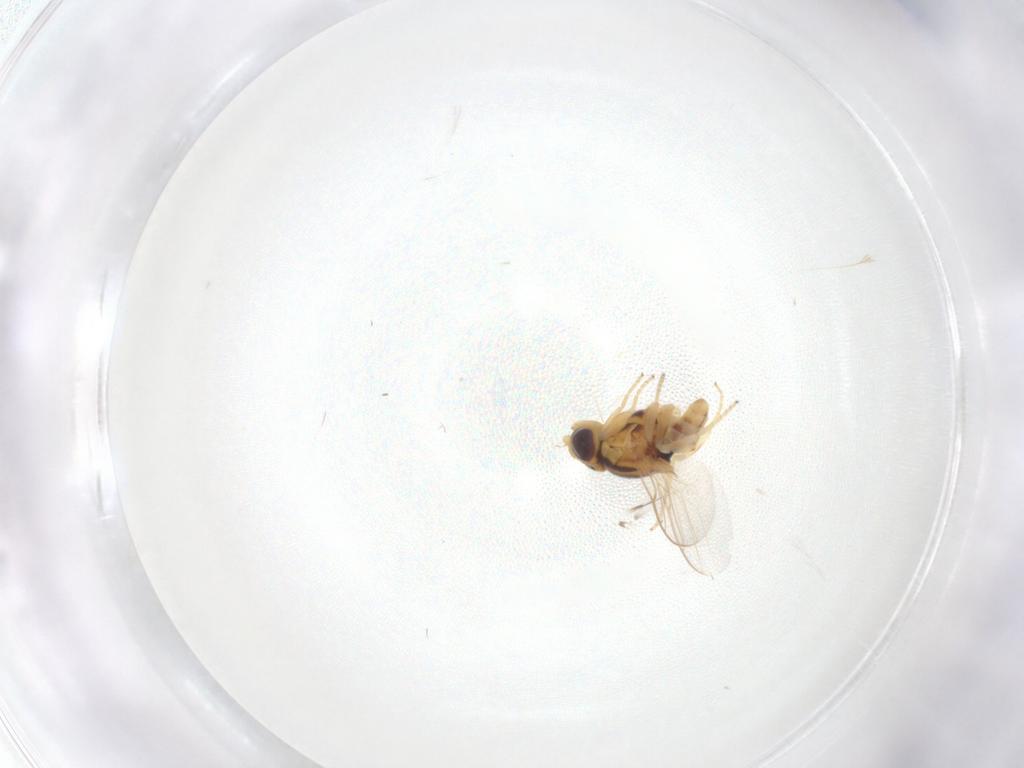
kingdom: Animalia
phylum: Arthropoda
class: Insecta
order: Diptera
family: Chloropidae
